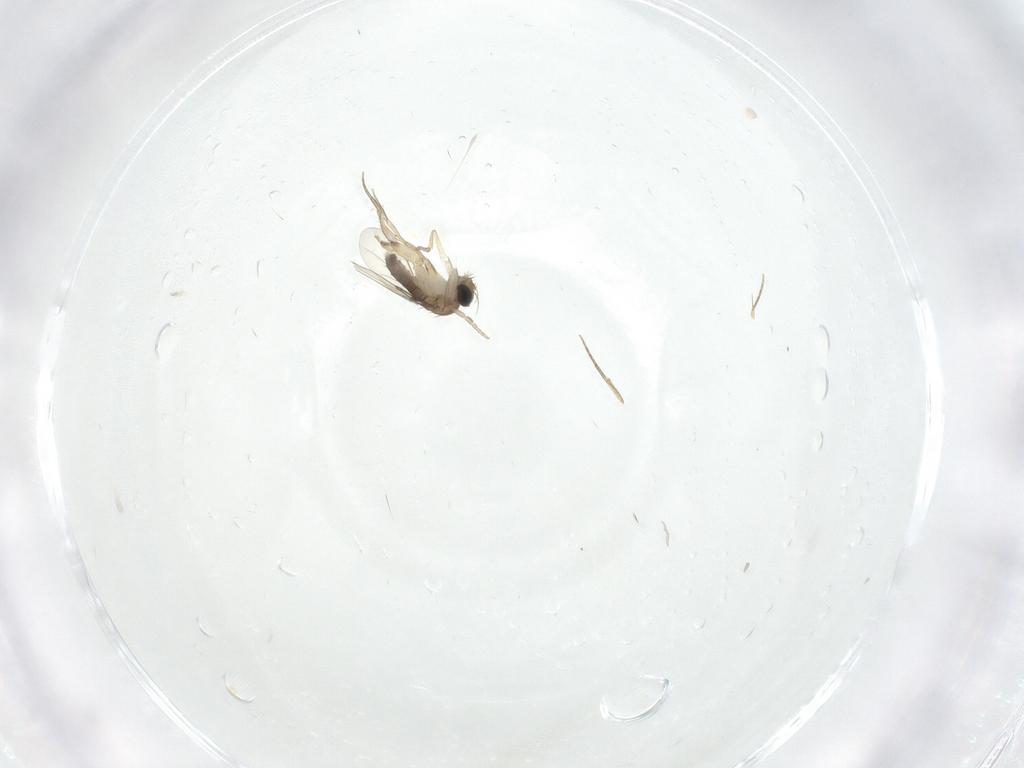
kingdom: Animalia
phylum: Arthropoda
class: Insecta
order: Diptera
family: Phoridae
